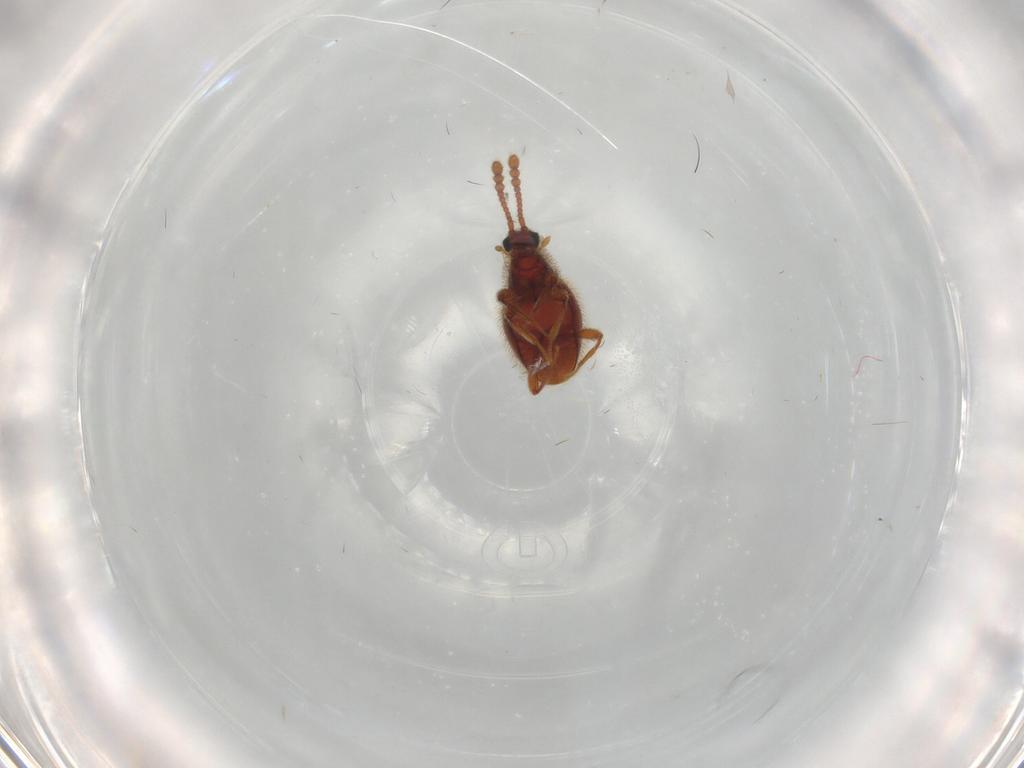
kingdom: Animalia
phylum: Arthropoda
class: Insecta
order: Coleoptera
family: Staphylinidae
